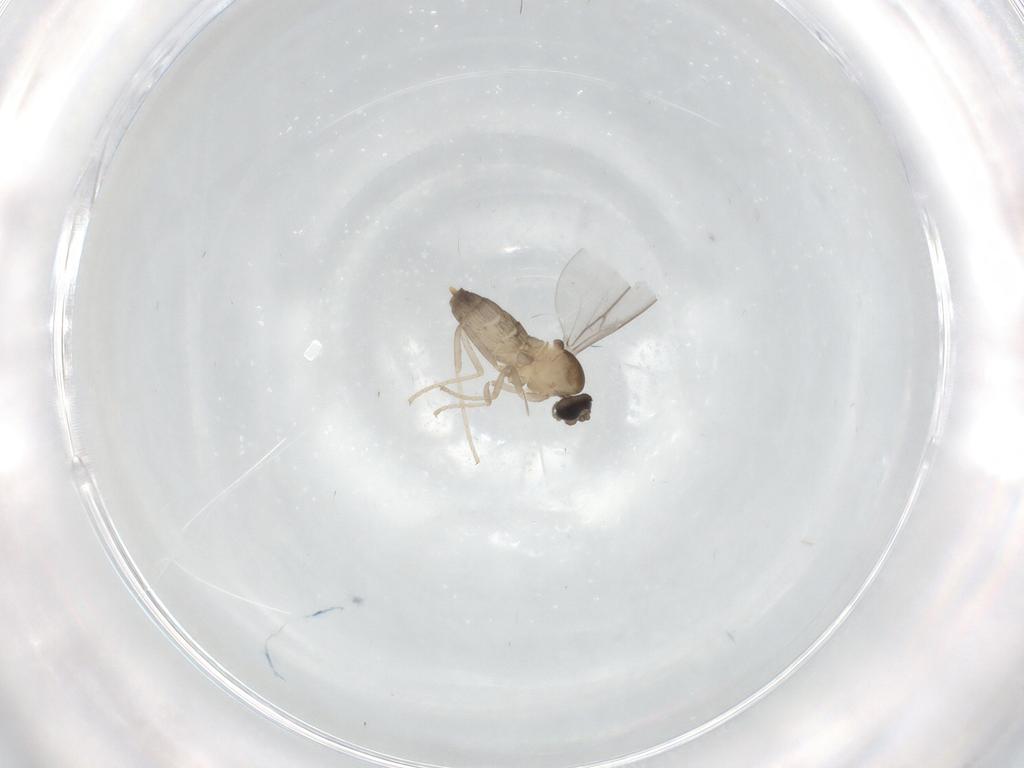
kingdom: Animalia
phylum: Arthropoda
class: Insecta
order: Diptera
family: Cecidomyiidae
